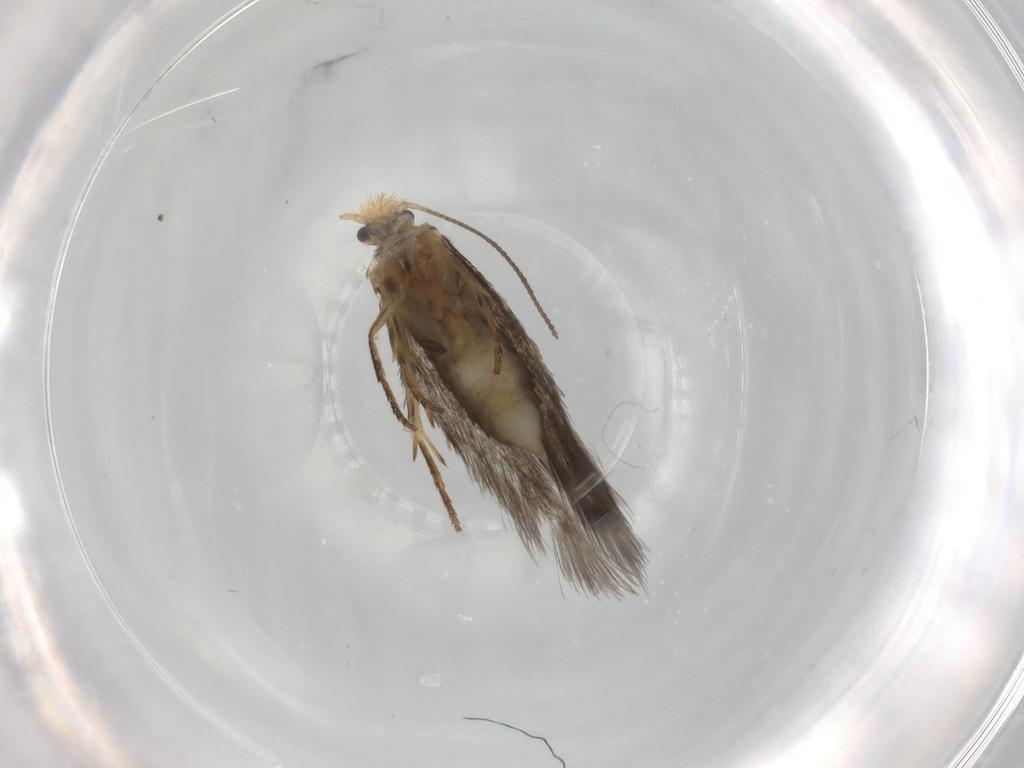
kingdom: Animalia
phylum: Arthropoda
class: Insecta
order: Lepidoptera
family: Nepticulidae
